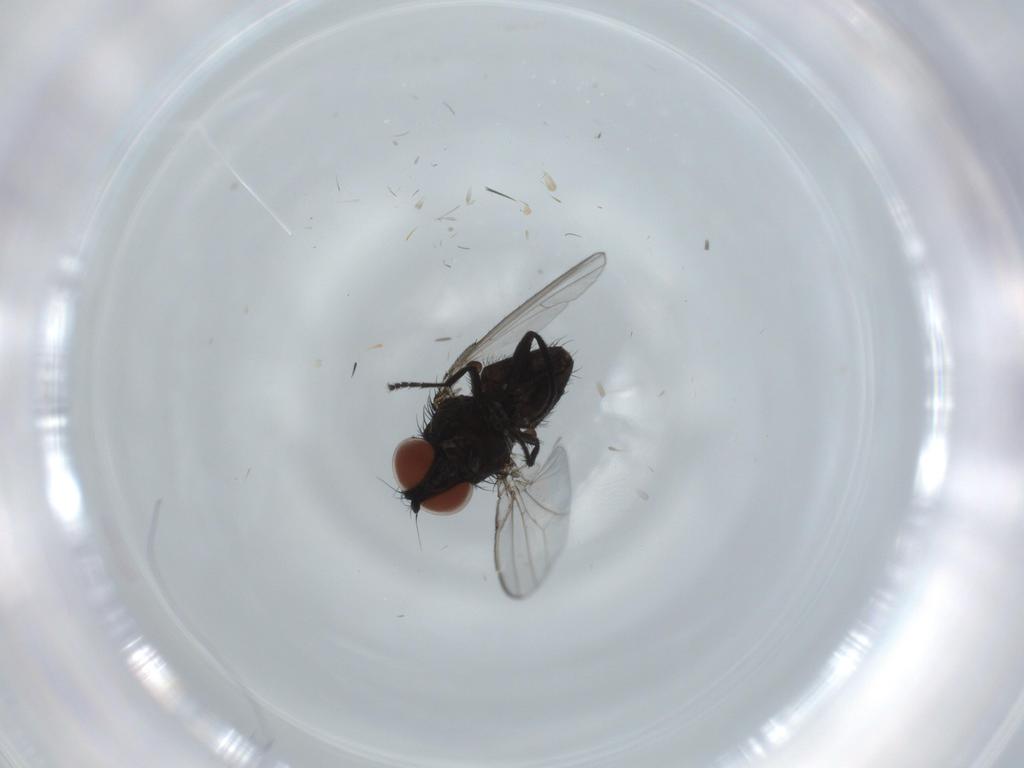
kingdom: Animalia
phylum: Arthropoda
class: Insecta
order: Diptera
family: Milichiidae
